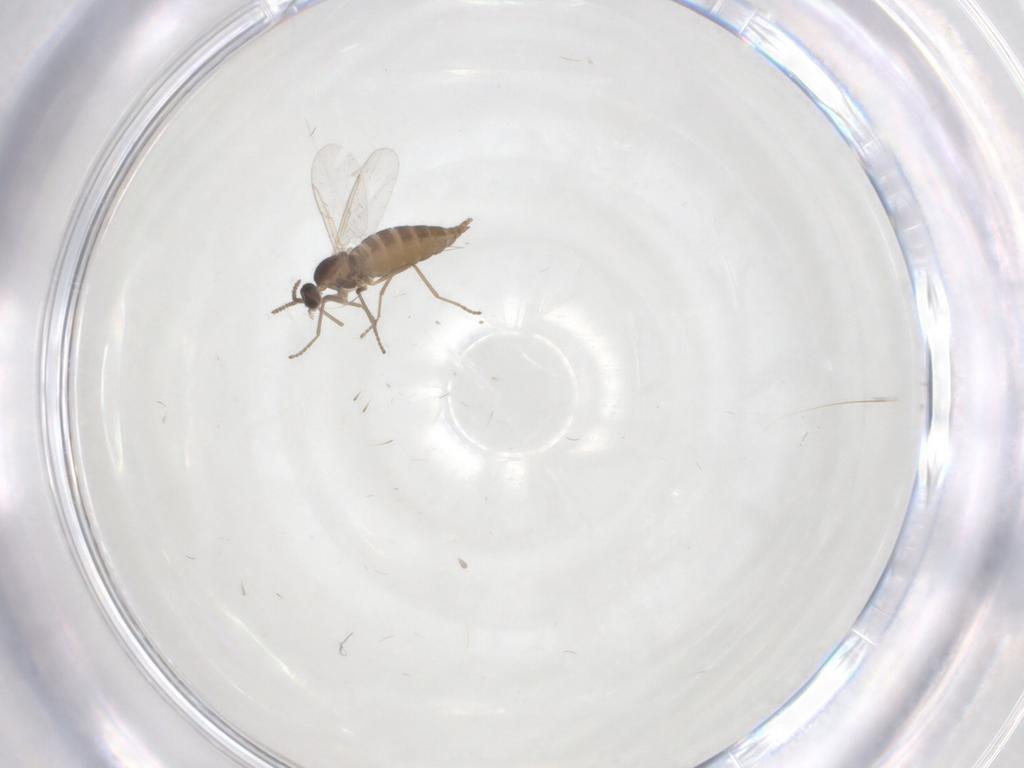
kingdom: Animalia
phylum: Arthropoda
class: Insecta
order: Diptera
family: Cecidomyiidae
